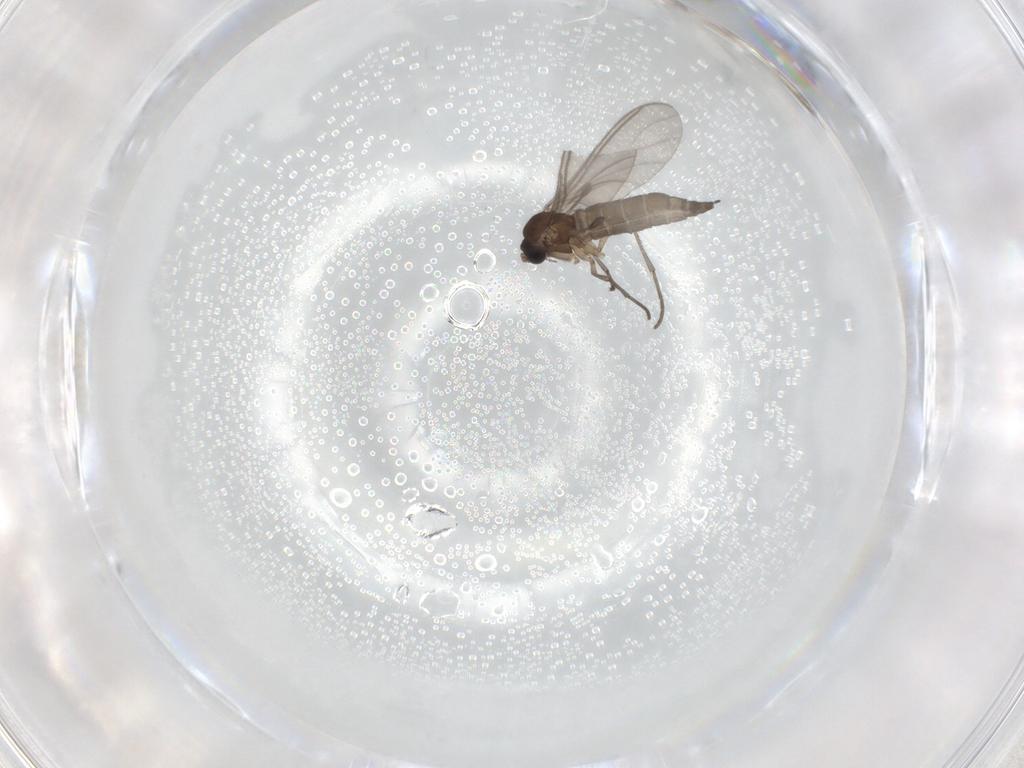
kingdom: Animalia
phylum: Arthropoda
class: Insecta
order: Diptera
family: Sciaridae
